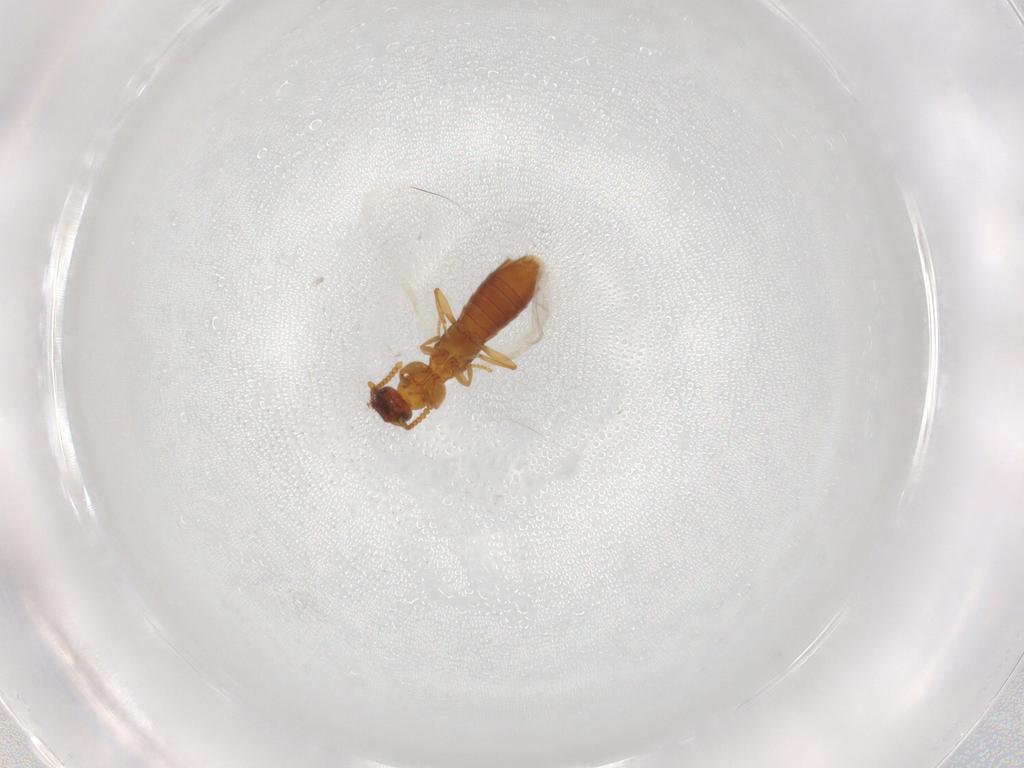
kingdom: Animalia
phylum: Arthropoda
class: Insecta
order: Coleoptera
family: Staphylinidae
